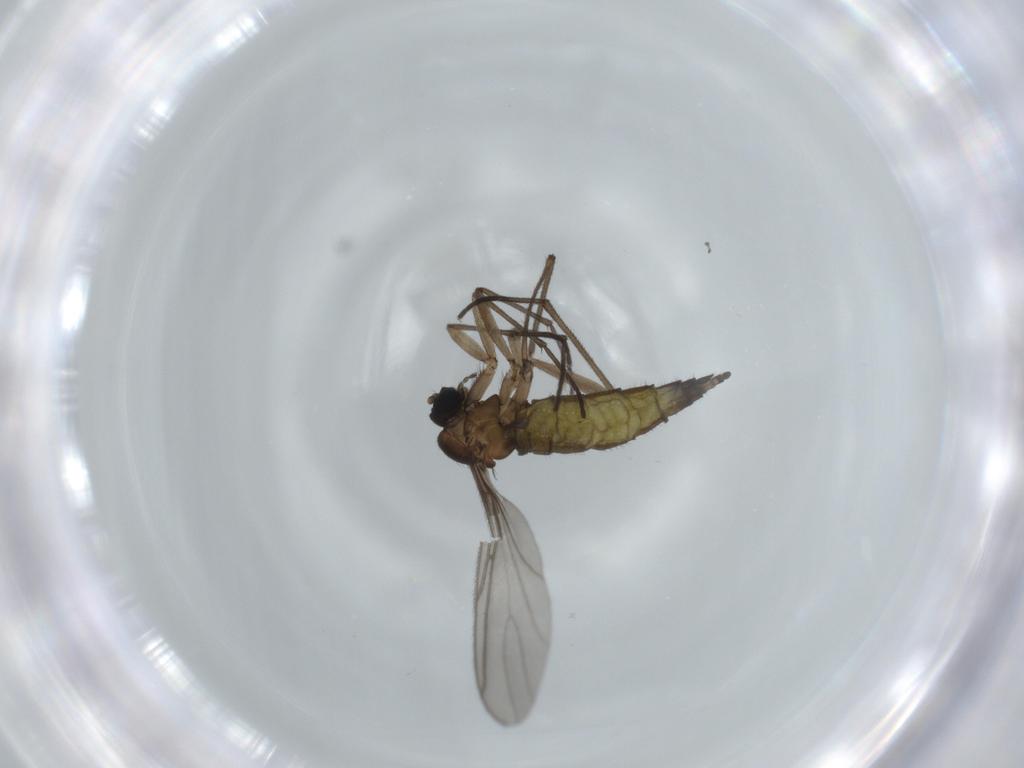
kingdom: Animalia
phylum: Arthropoda
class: Insecta
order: Diptera
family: Sciaridae
